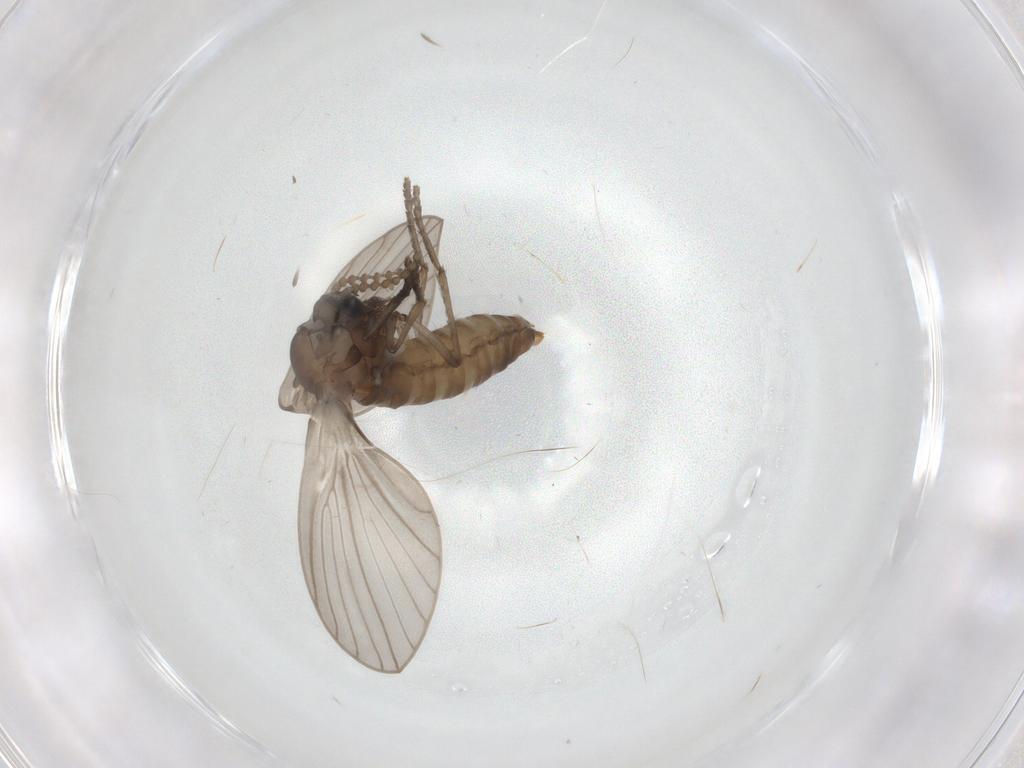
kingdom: Animalia
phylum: Arthropoda
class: Insecta
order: Diptera
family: Psychodidae
